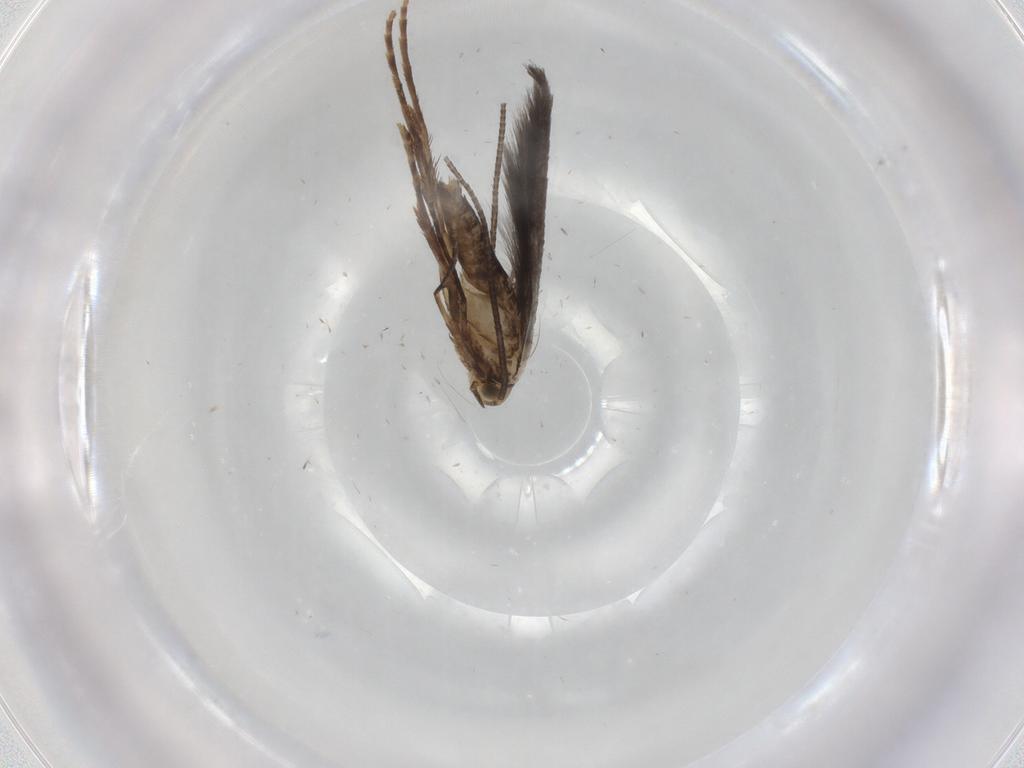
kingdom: Animalia
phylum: Arthropoda
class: Insecta
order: Lepidoptera
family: Gracillariidae
